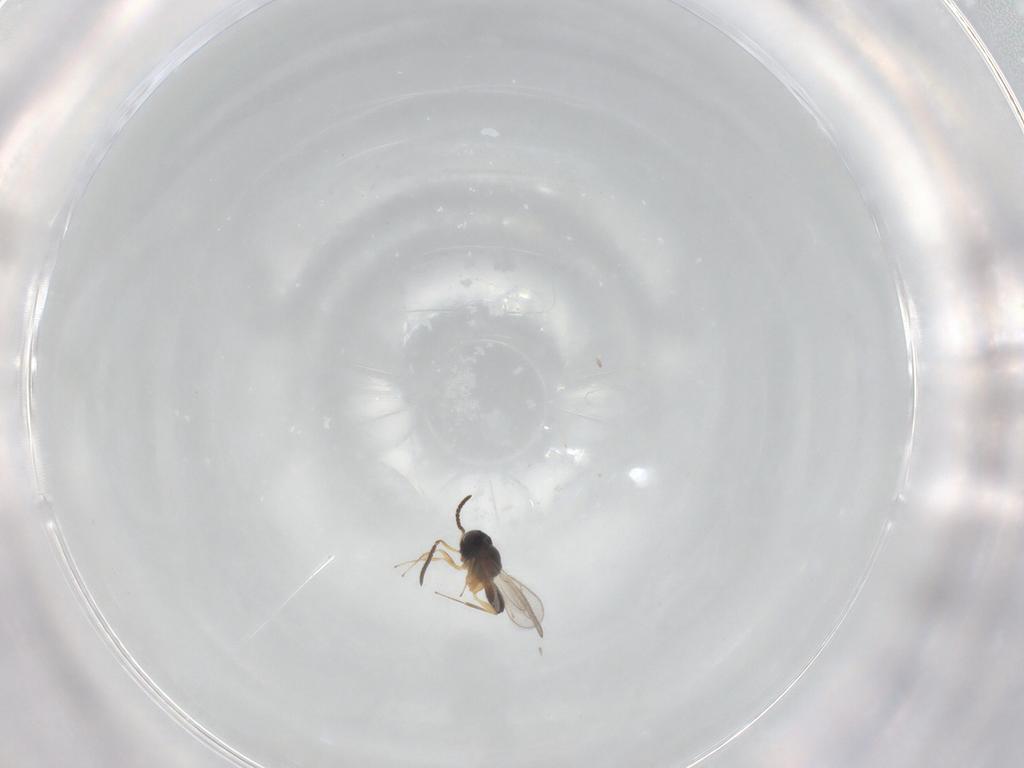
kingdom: Animalia
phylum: Arthropoda
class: Insecta
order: Hymenoptera
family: Scelionidae
